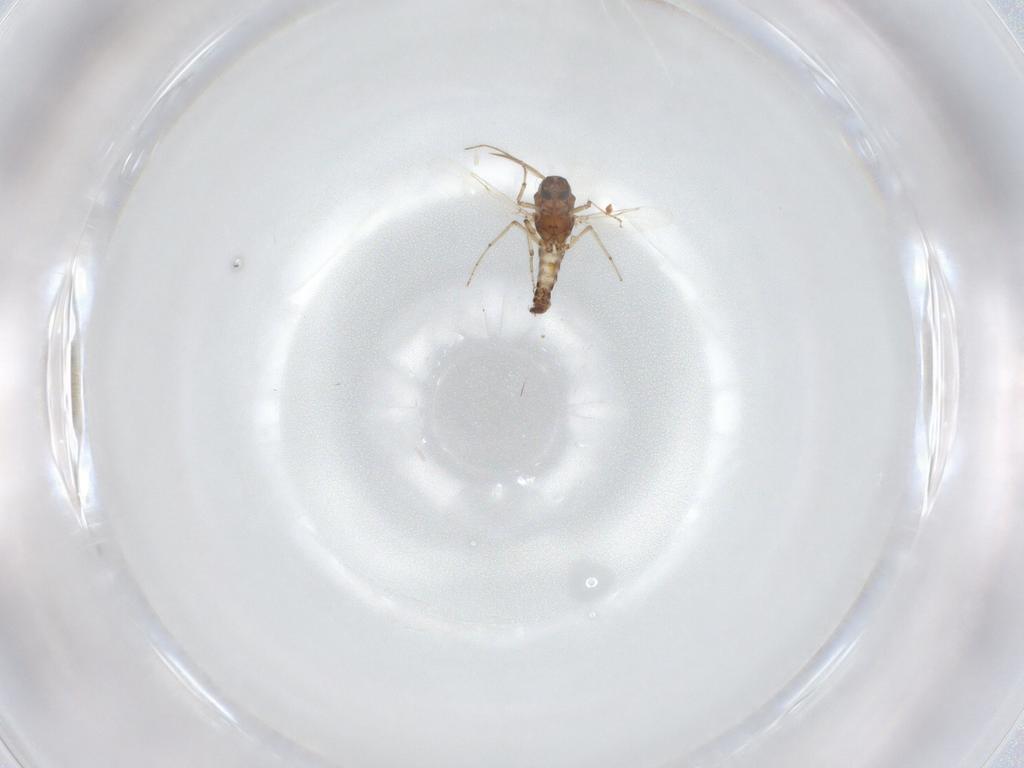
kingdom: Animalia
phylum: Arthropoda
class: Insecta
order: Diptera
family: Ceratopogonidae
